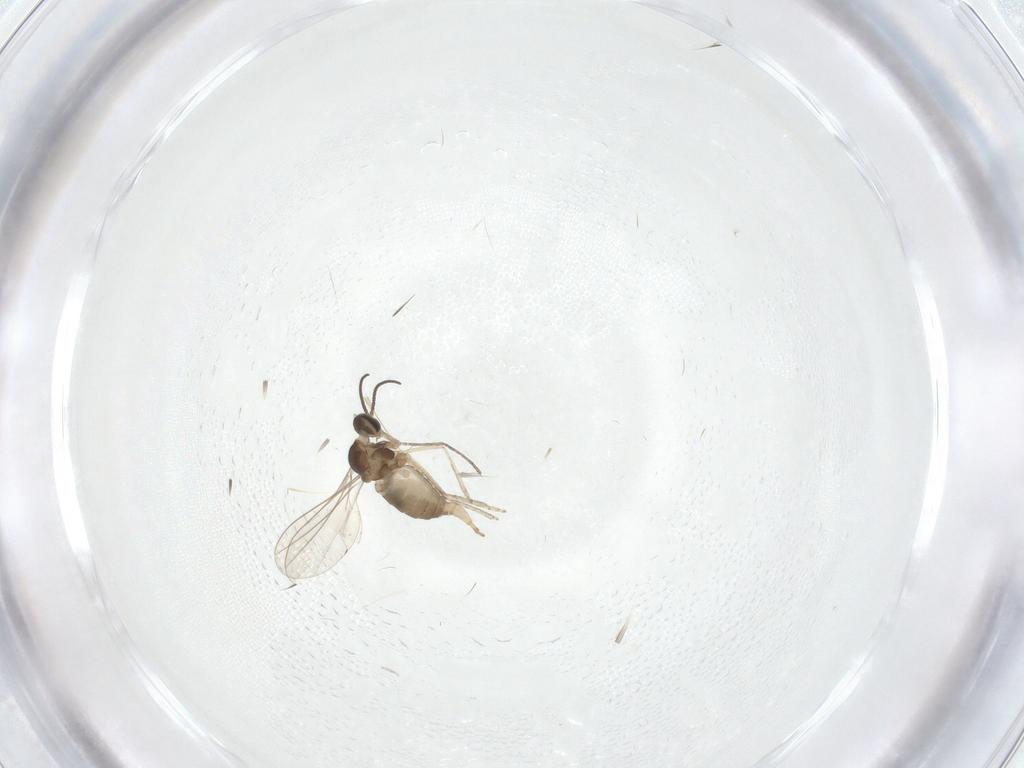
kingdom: Animalia
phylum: Arthropoda
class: Insecta
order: Diptera
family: Cecidomyiidae
